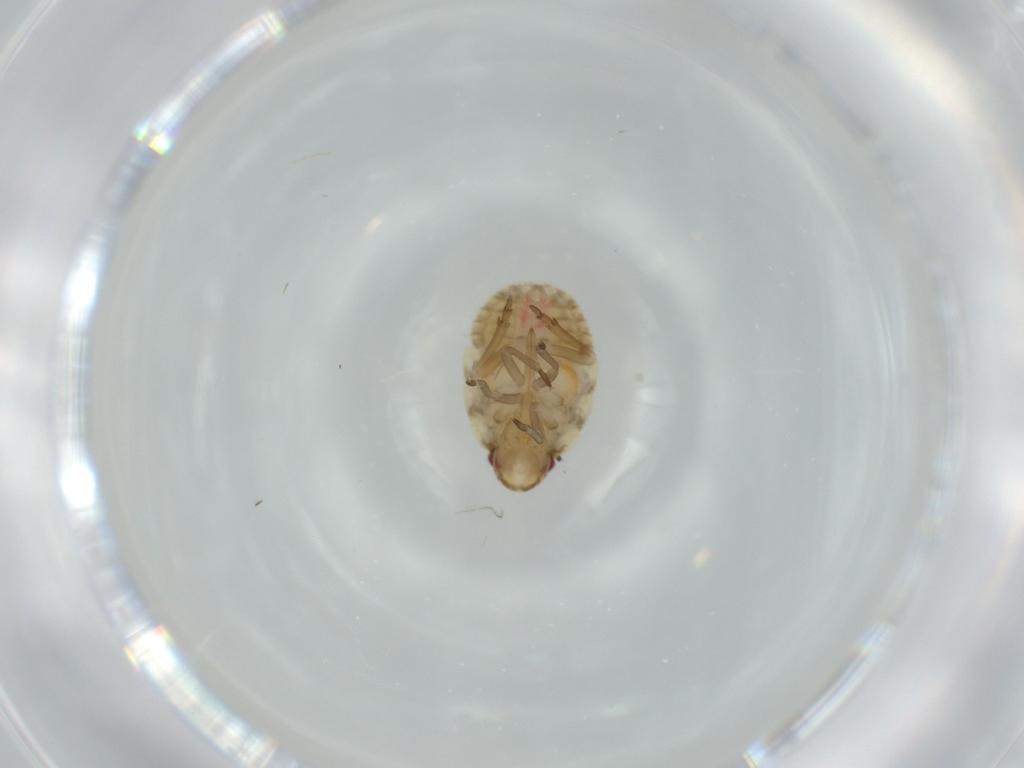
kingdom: Animalia
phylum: Arthropoda
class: Insecta
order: Hemiptera
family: Flatidae
